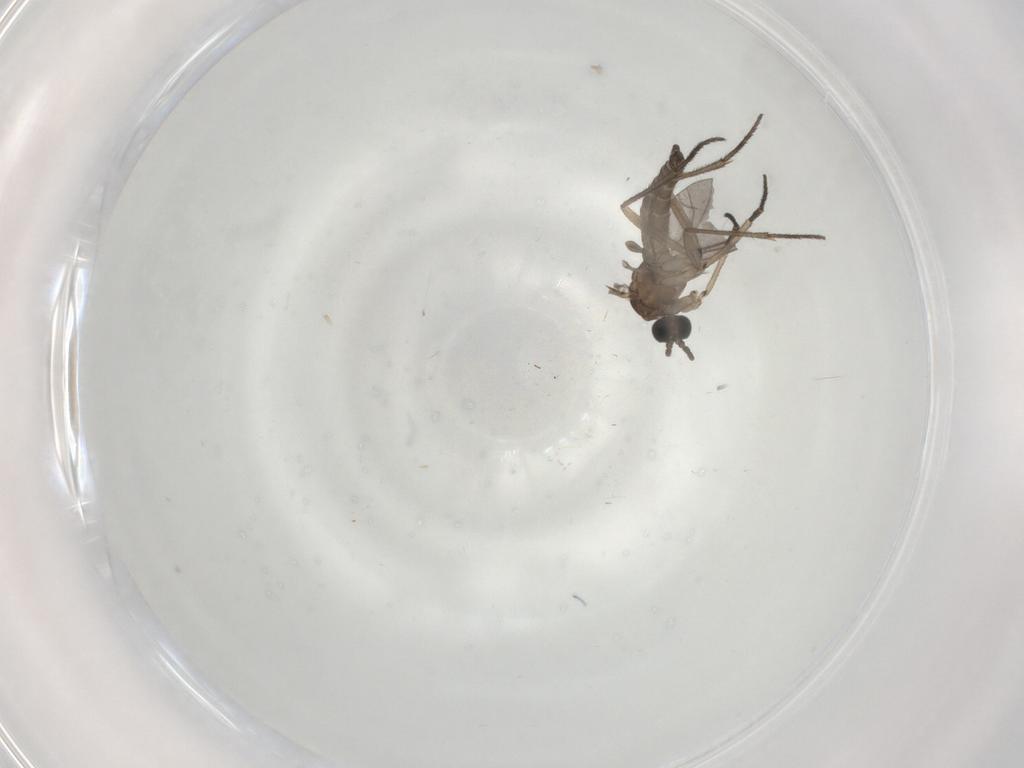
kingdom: Animalia
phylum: Arthropoda
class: Insecta
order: Diptera
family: Sciaridae
